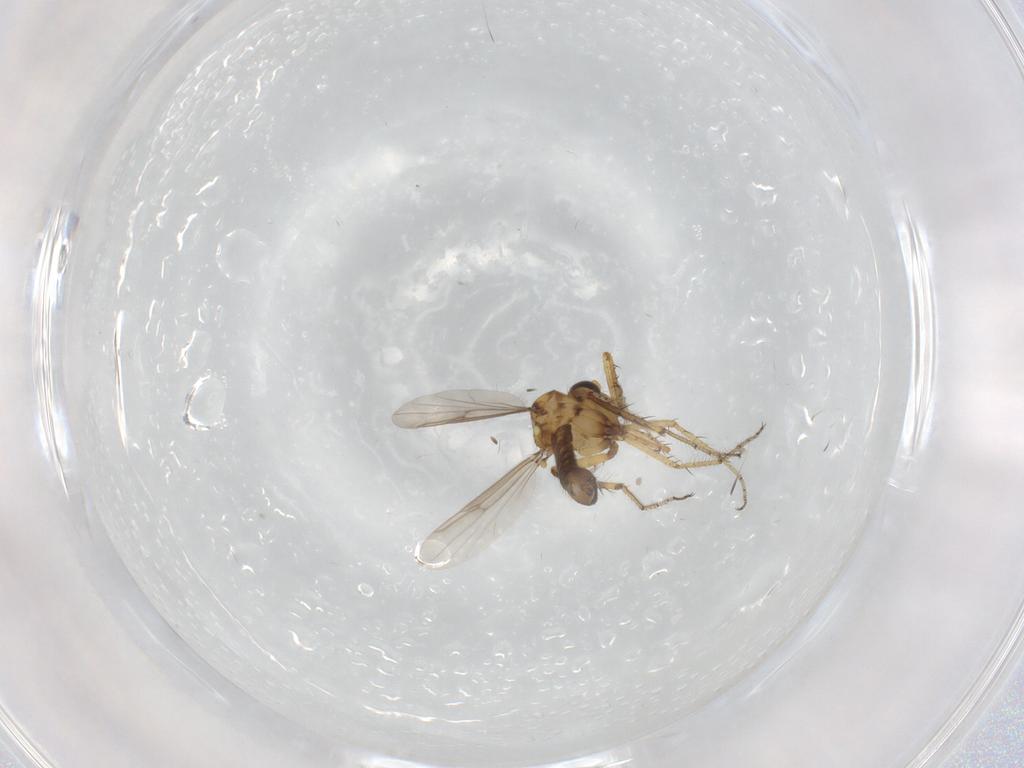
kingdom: Animalia
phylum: Arthropoda
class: Insecta
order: Diptera
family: Ceratopogonidae
